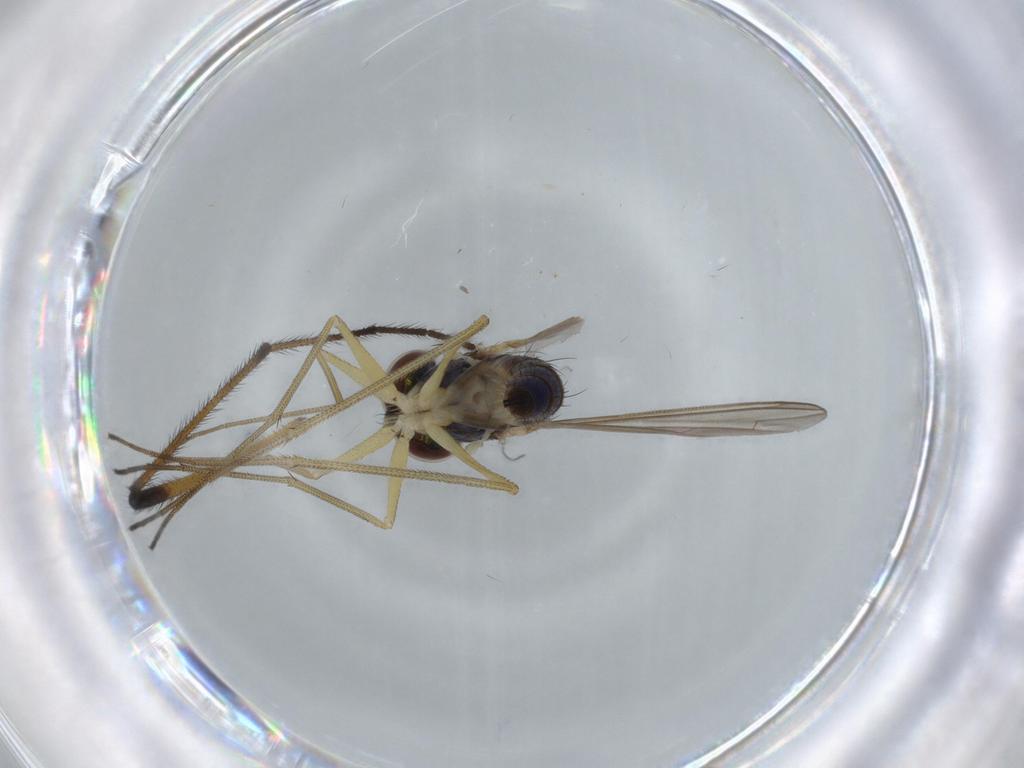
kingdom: Animalia
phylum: Arthropoda
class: Insecta
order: Diptera
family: Dolichopodidae
